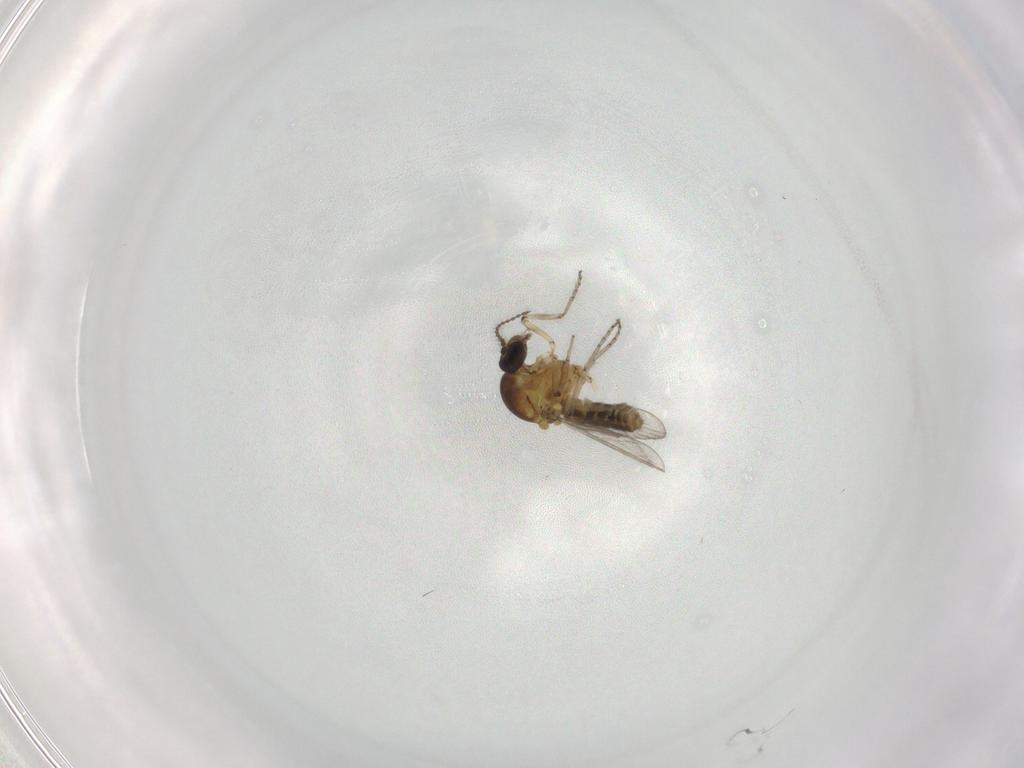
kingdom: Animalia
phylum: Arthropoda
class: Insecta
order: Diptera
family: Ceratopogonidae
